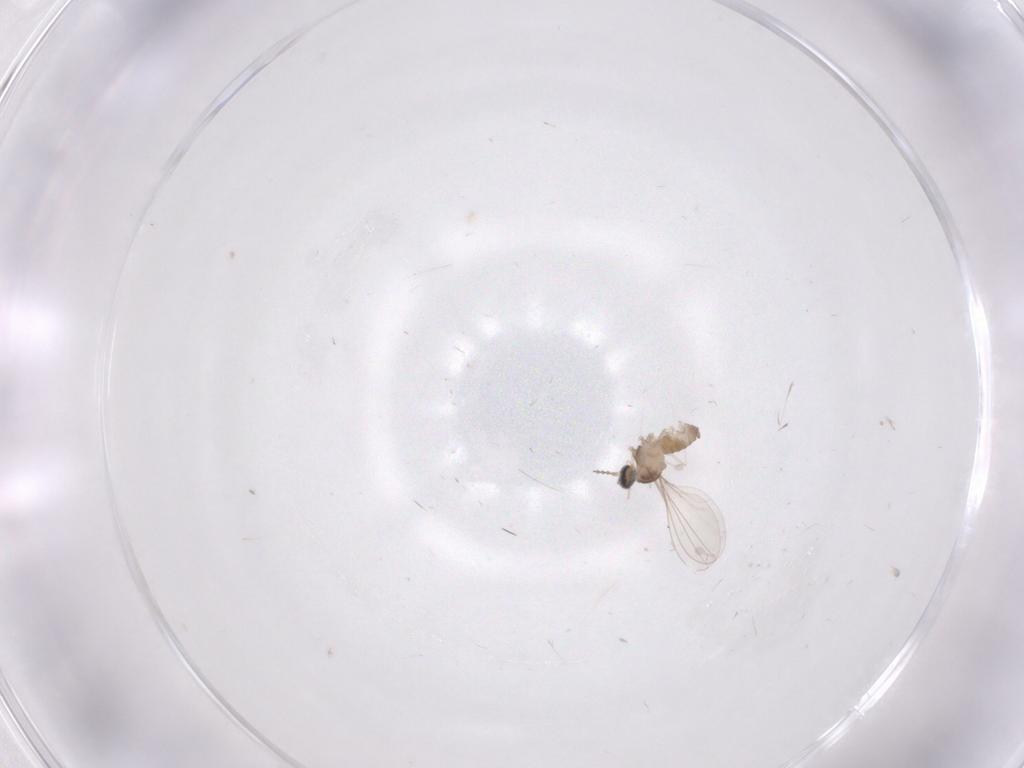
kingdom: Animalia
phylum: Arthropoda
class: Insecta
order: Diptera
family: Cecidomyiidae
